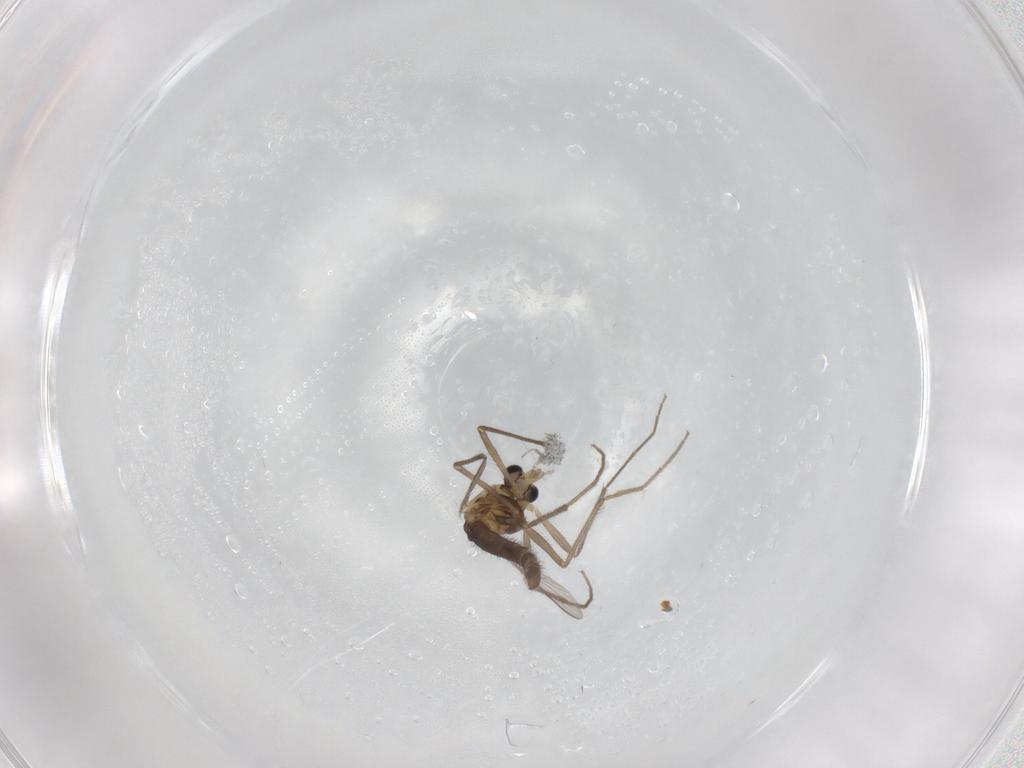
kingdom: Animalia
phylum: Arthropoda
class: Insecta
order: Diptera
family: Chironomidae
